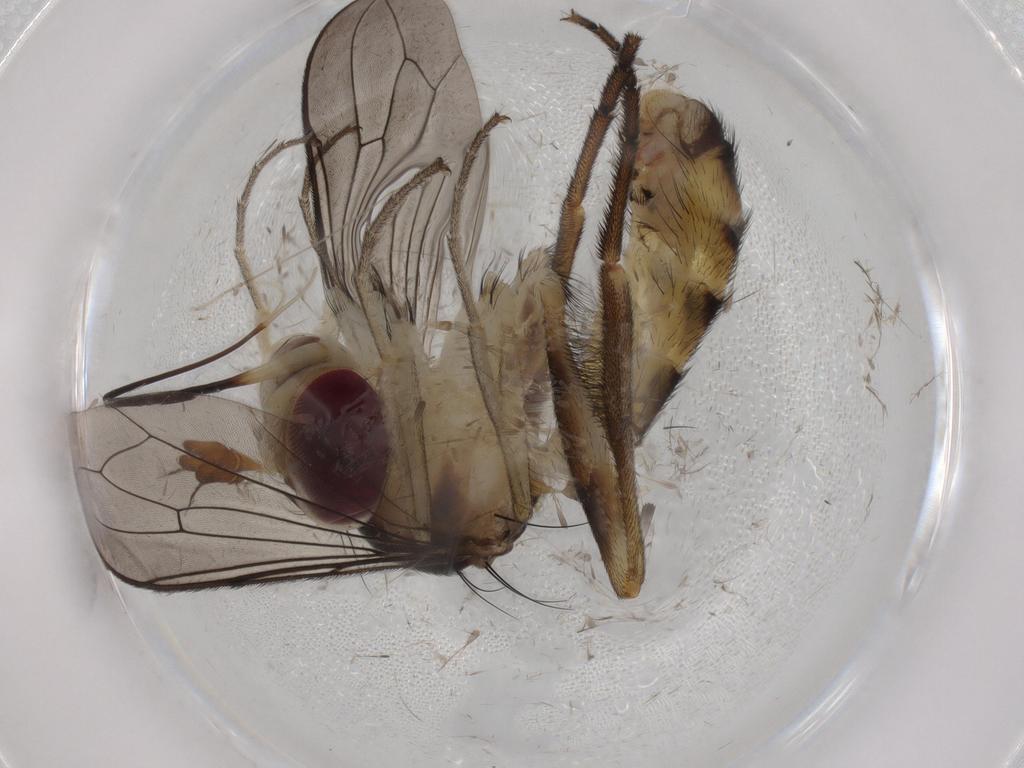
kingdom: Animalia
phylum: Arthropoda
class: Insecta
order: Diptera
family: Conopidae
